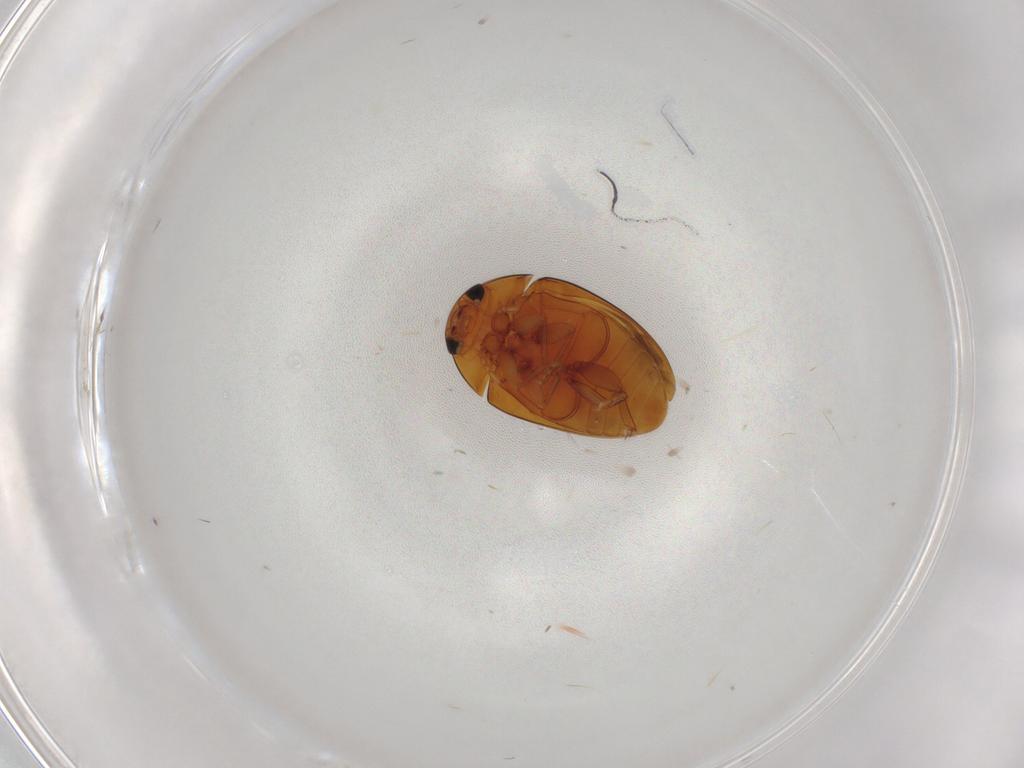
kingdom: Animalia
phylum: Arthropoda
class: Insecta
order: Coleoptera
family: Phalacridae
